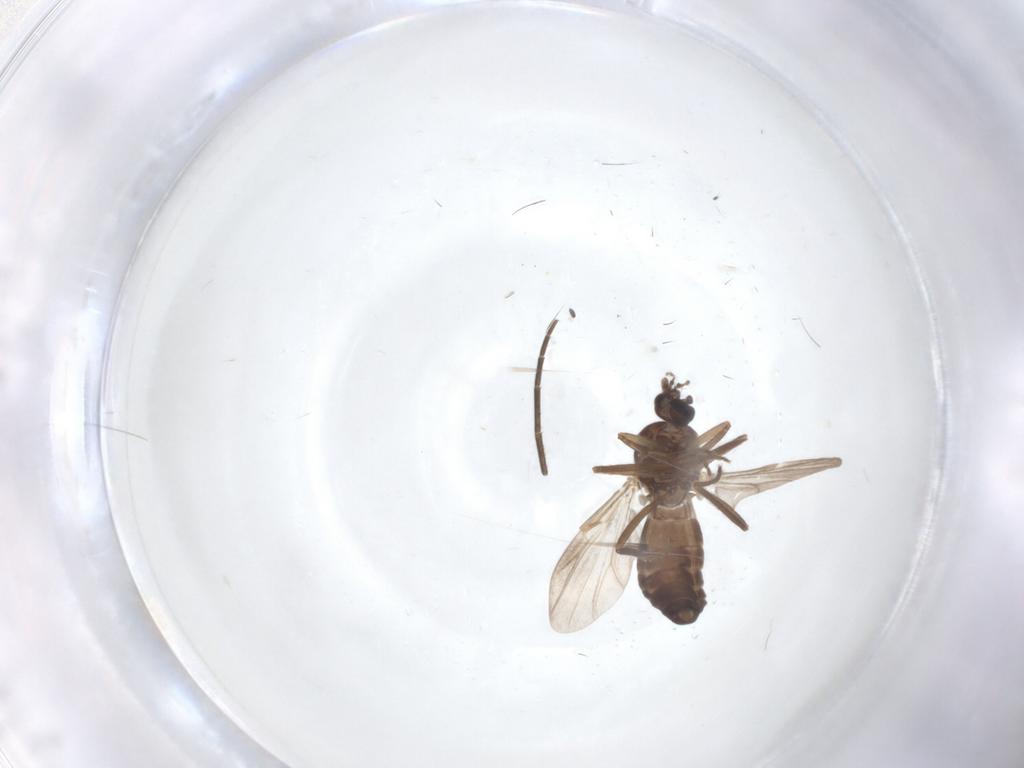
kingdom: Animalia
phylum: Arthropoda
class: Insecta
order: Diptera
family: Ceratopogonidae
